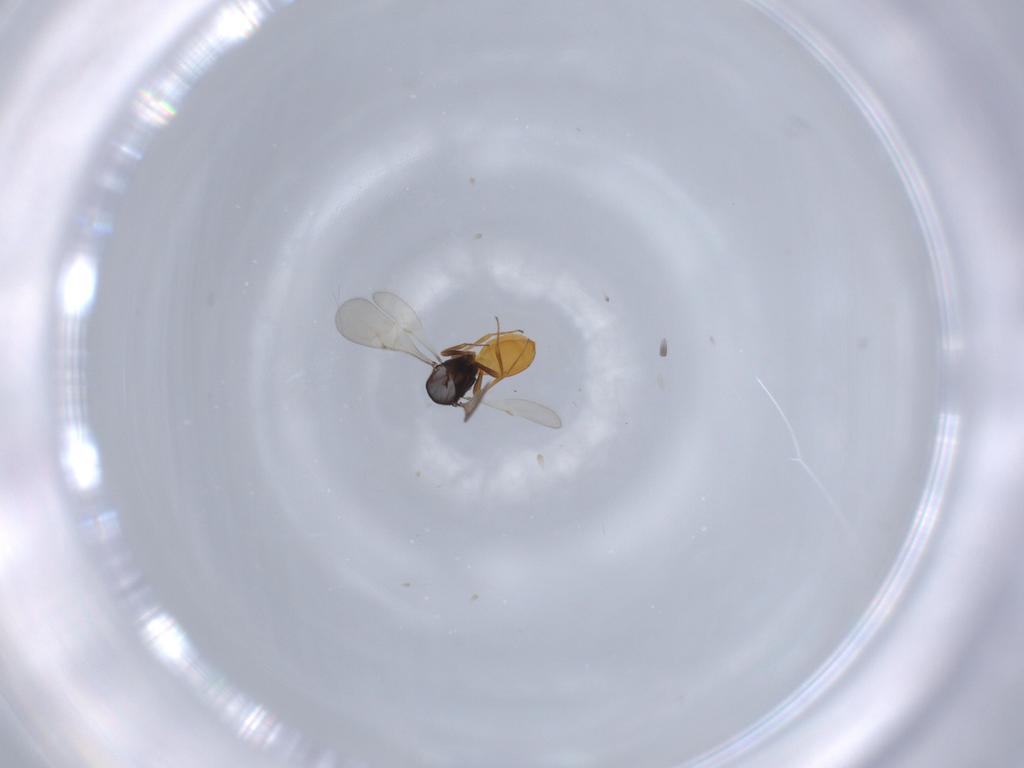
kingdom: Animalia
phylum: Arthropoda
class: Insecta
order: Hymenoptera
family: Scelionidae
